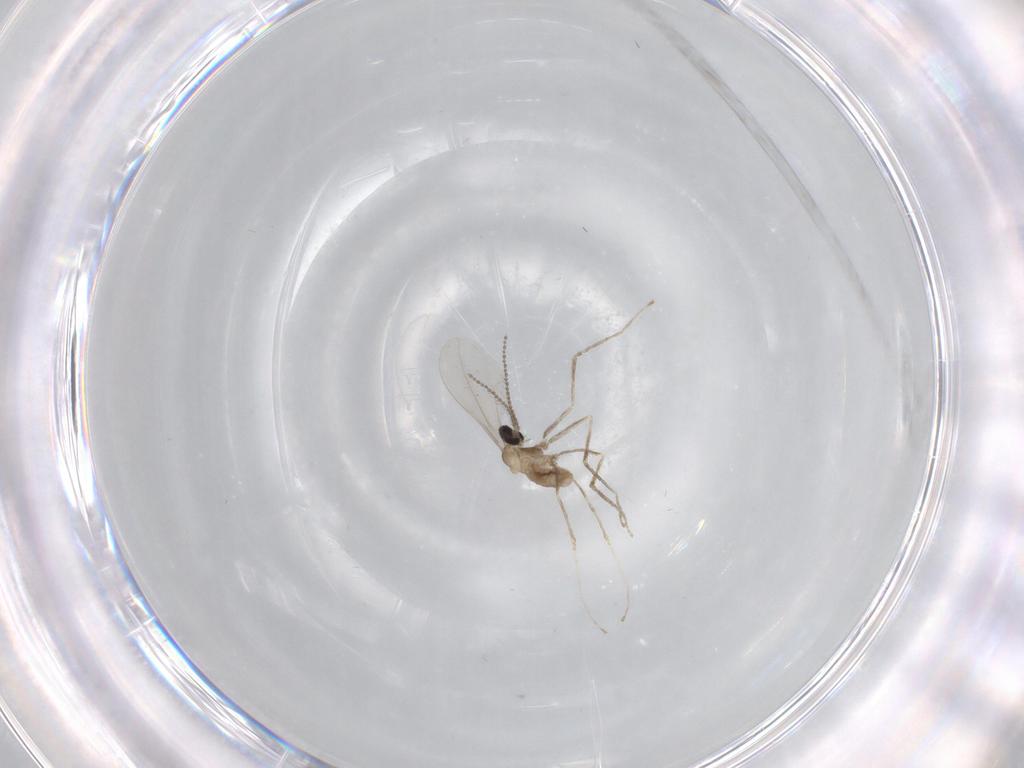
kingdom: Animalia
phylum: Arthropoda
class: Insecta
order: Diptera
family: Cecidomyiidae
